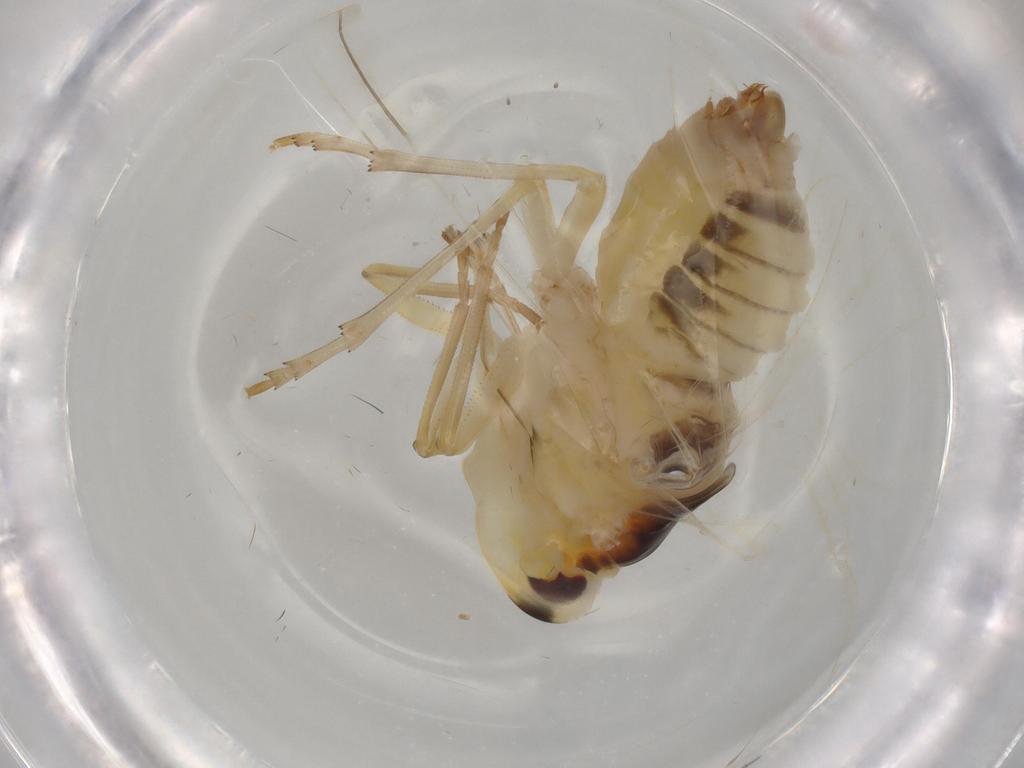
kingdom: Animalia
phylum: Arthropoda
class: Insecta
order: Hemiptera
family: Derbidae
